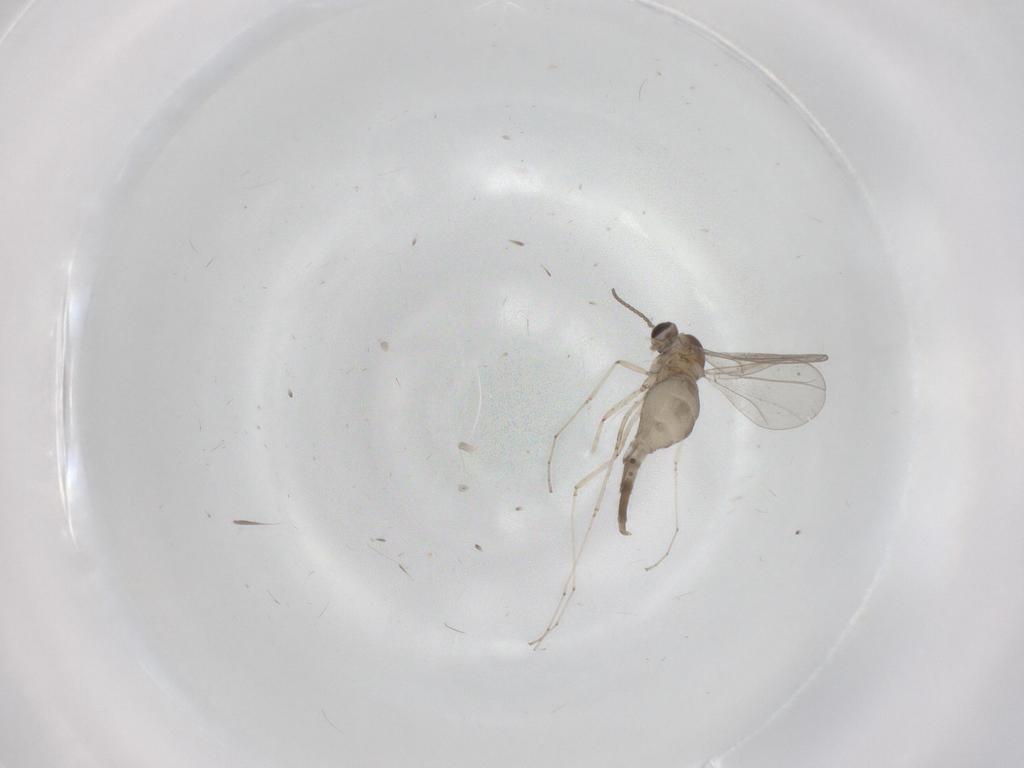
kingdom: Animalia
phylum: Arthropoda
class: Insecta
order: Diptera
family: Cecidomyiidae
